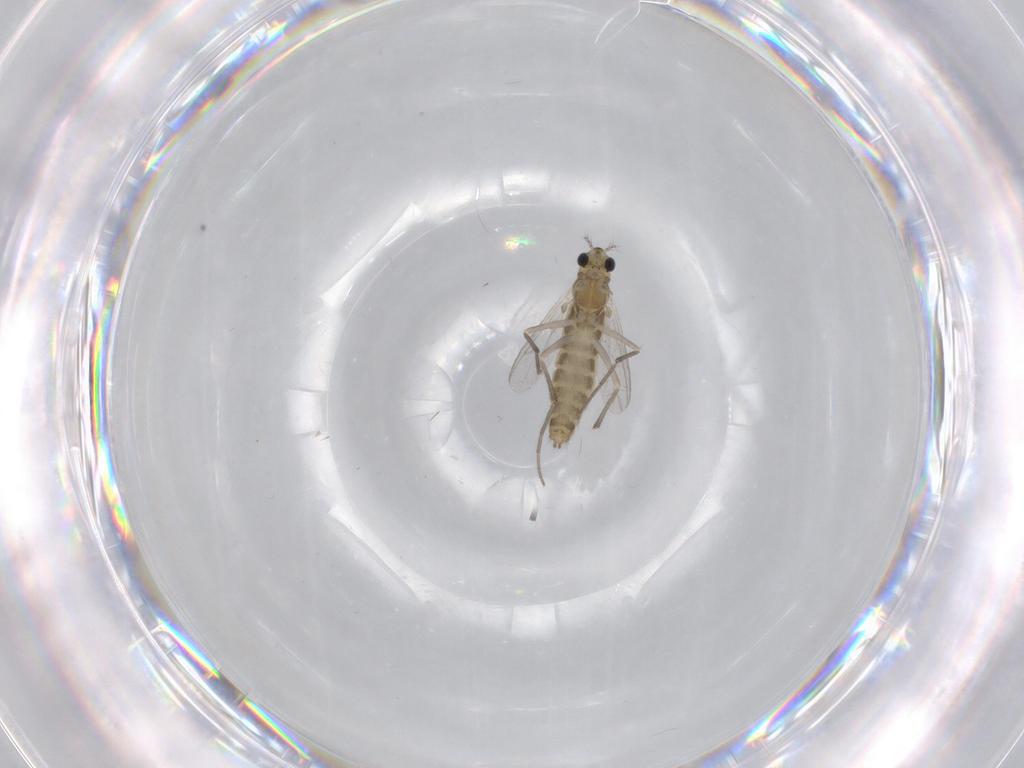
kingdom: Animalia
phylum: Arthropoda
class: Insecta
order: Diptera
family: Chironomidae
